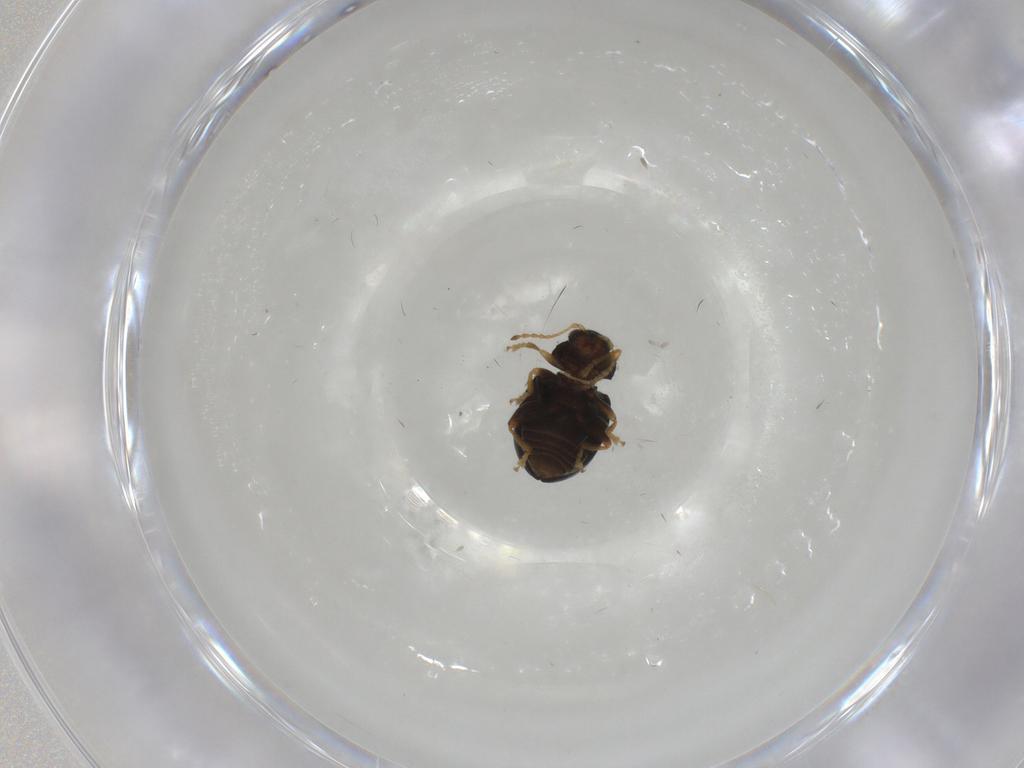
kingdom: Animalia
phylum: Arthropoda
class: Insecta
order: Coleoptera
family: Chrysomelidae
